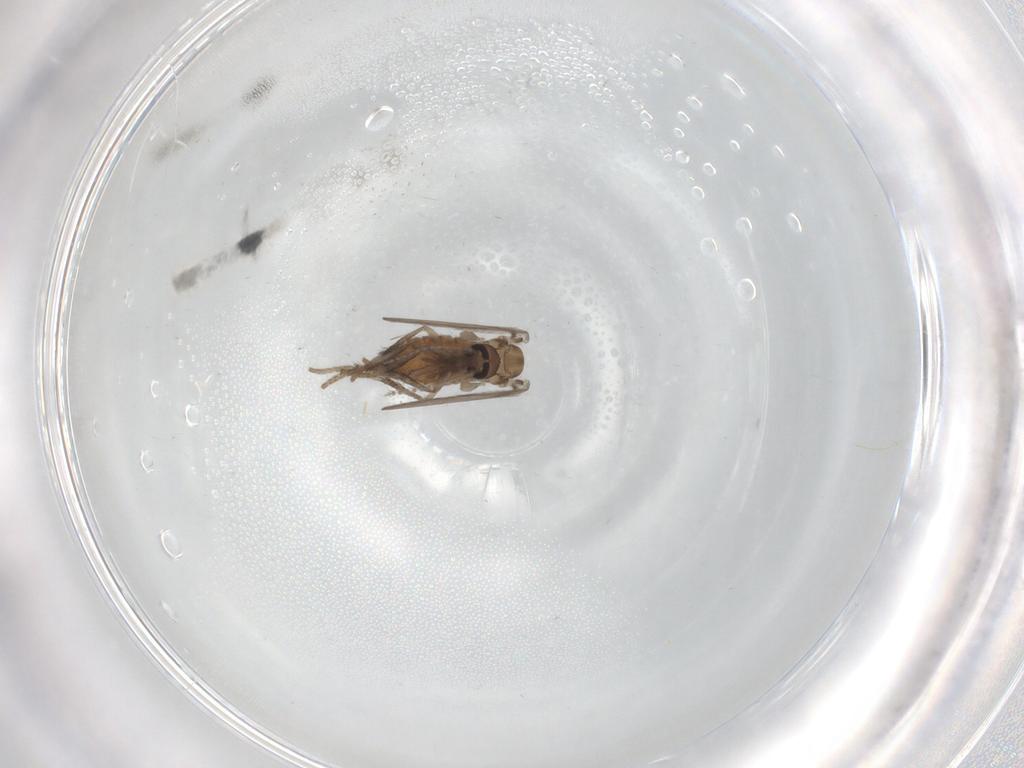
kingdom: Animalia
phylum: Arthropoda
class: Insecta
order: Diptera
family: Psychodidae
